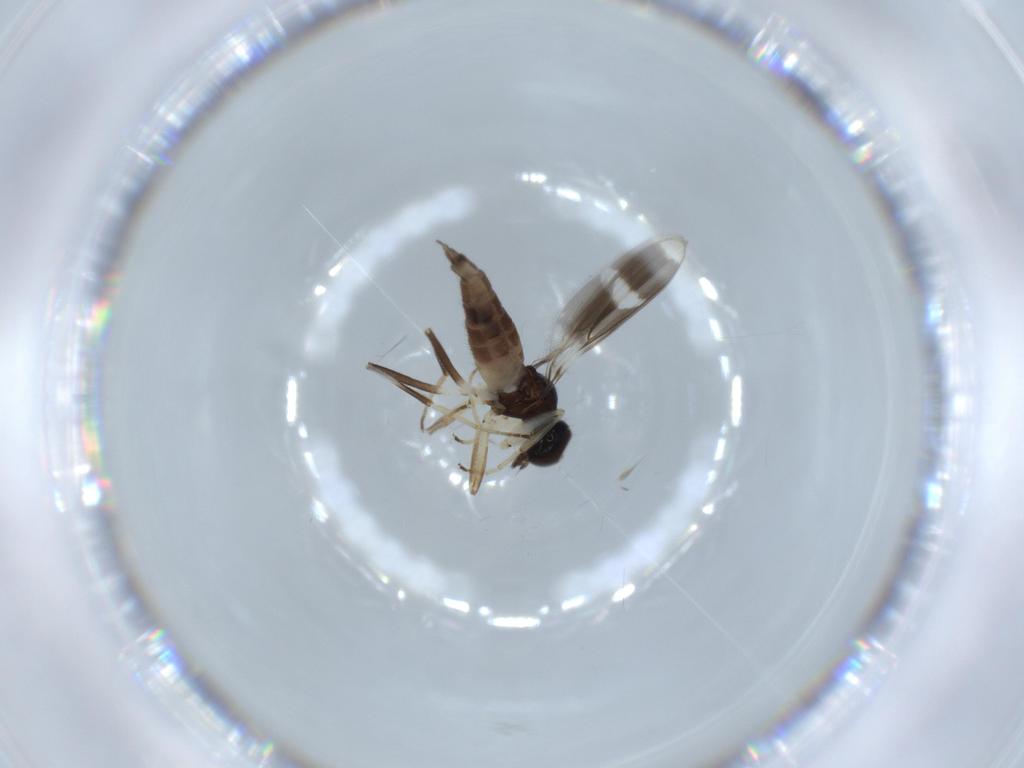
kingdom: Animalia
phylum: Arthropoda
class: Insecta
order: Diptera
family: Hybotidae
